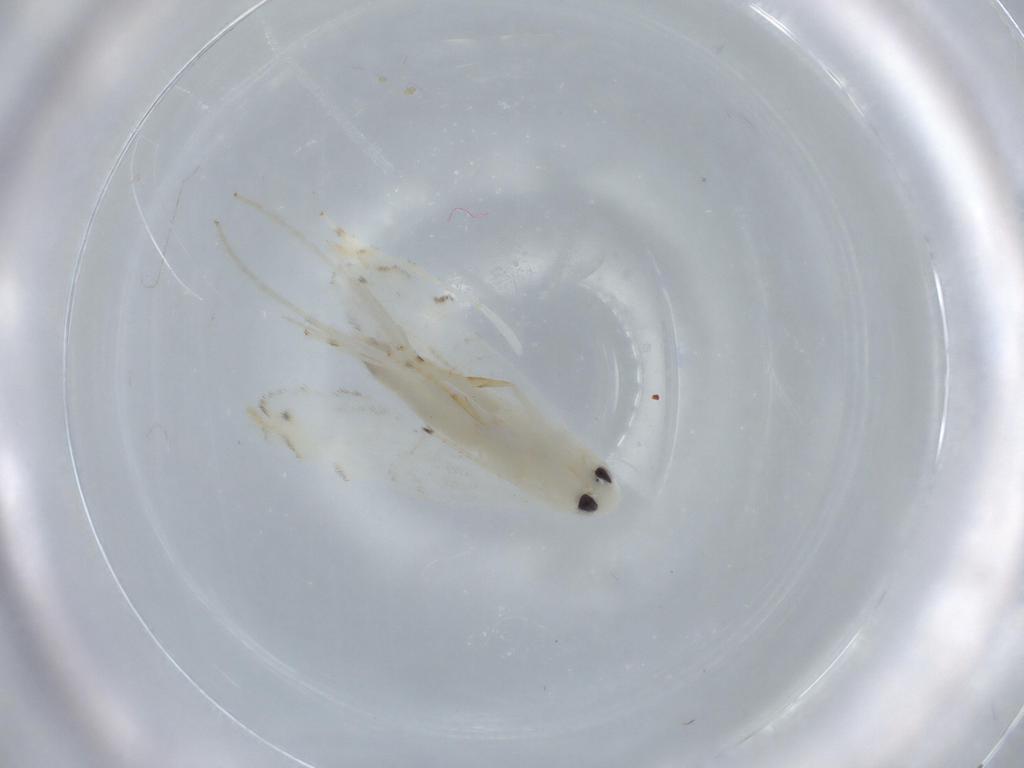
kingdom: Animalia
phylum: Arthropoda
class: Insecta
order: Lepidoptera
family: Gracillariidae
